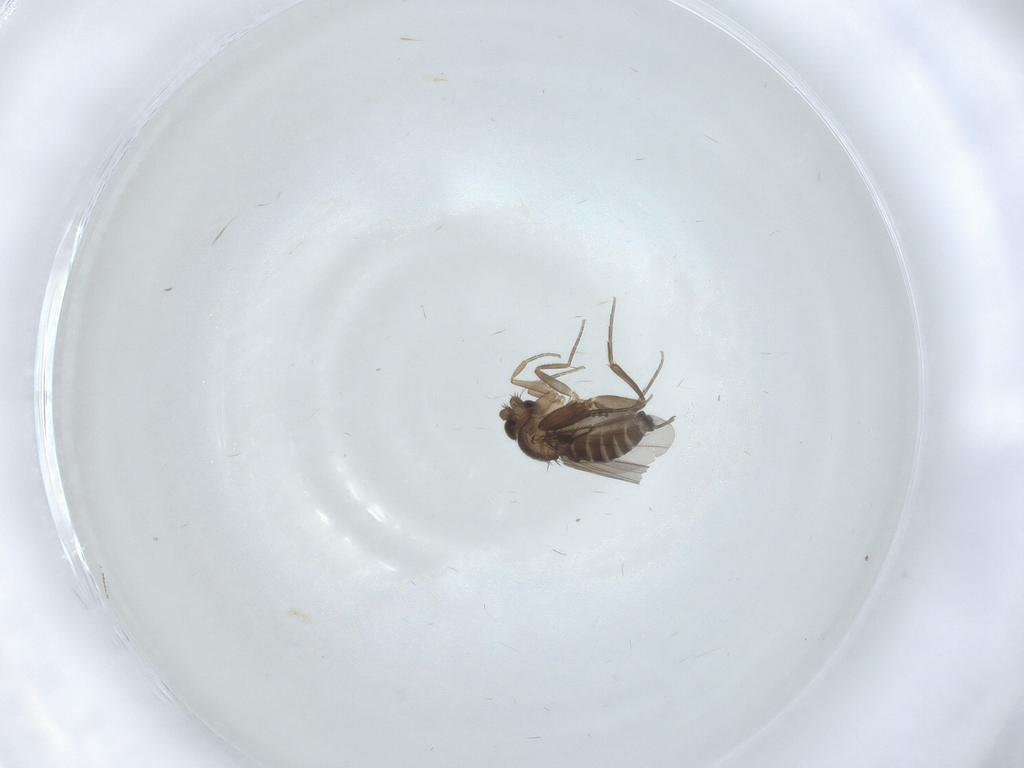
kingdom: Animalia
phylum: Arthropoda
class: Insecta
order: Diptera
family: Phoridae
